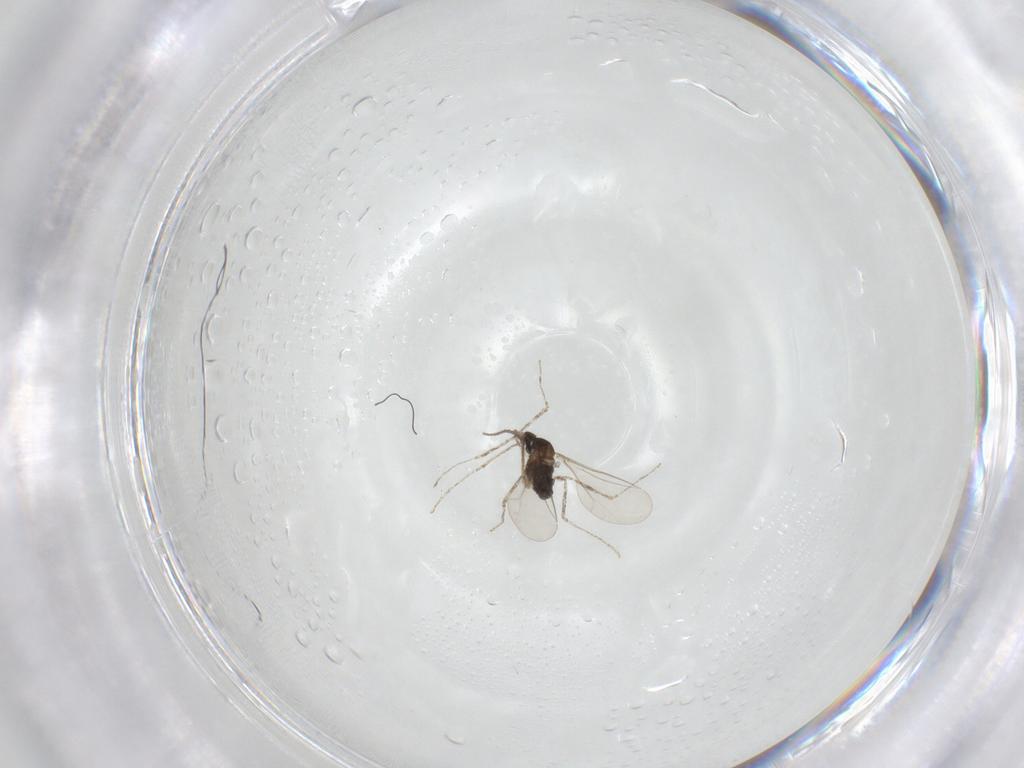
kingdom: Animalia
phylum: Arthropoda
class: Insecta
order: Diptera
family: Cecidomyiidae
